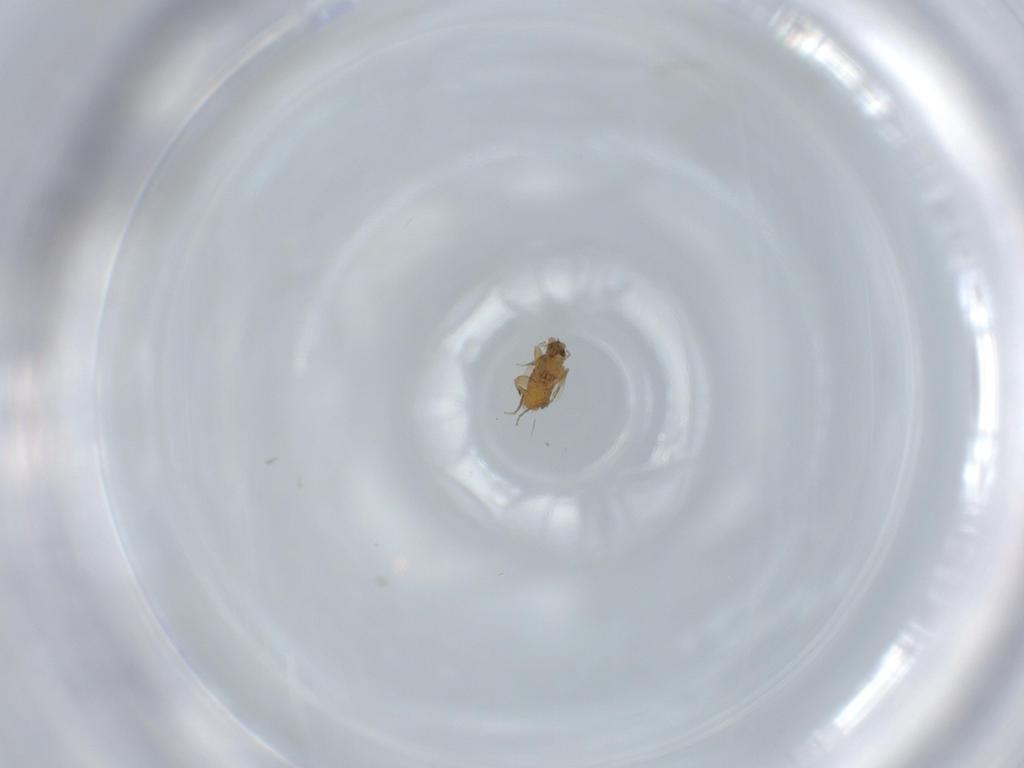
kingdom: Animalia
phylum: Arthropoda
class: Insecta
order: Diptera
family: Phoridae
